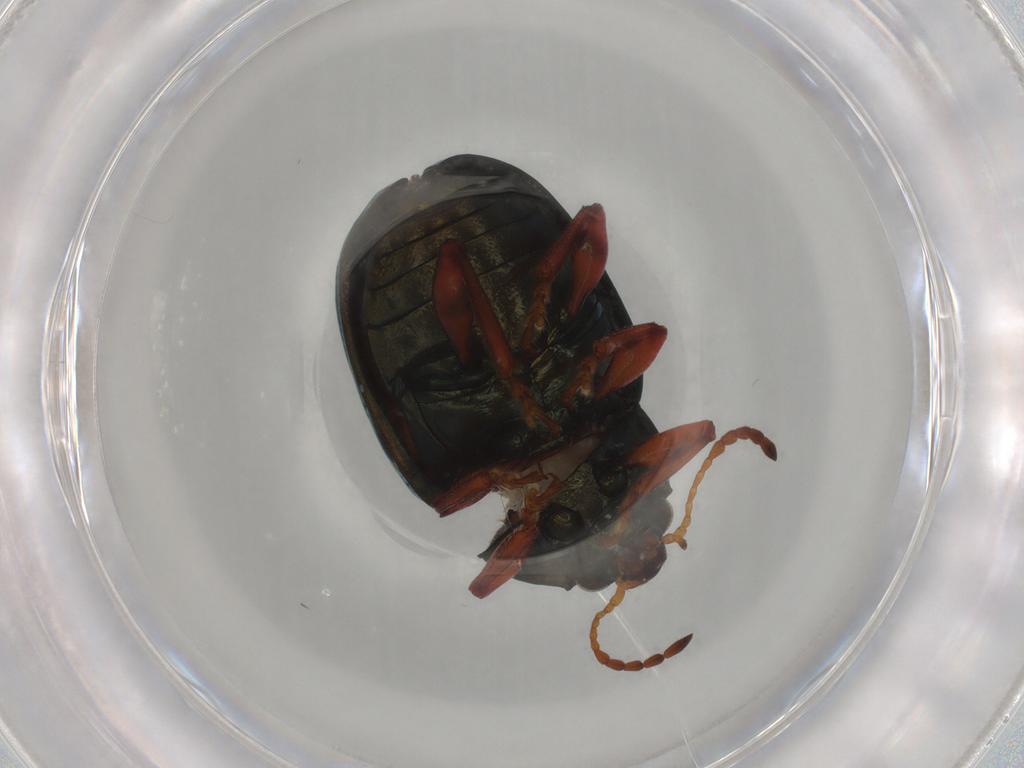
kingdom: Animalia
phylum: Arthropoda
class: Insecta
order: Coleoptera
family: Chrysomelidae
